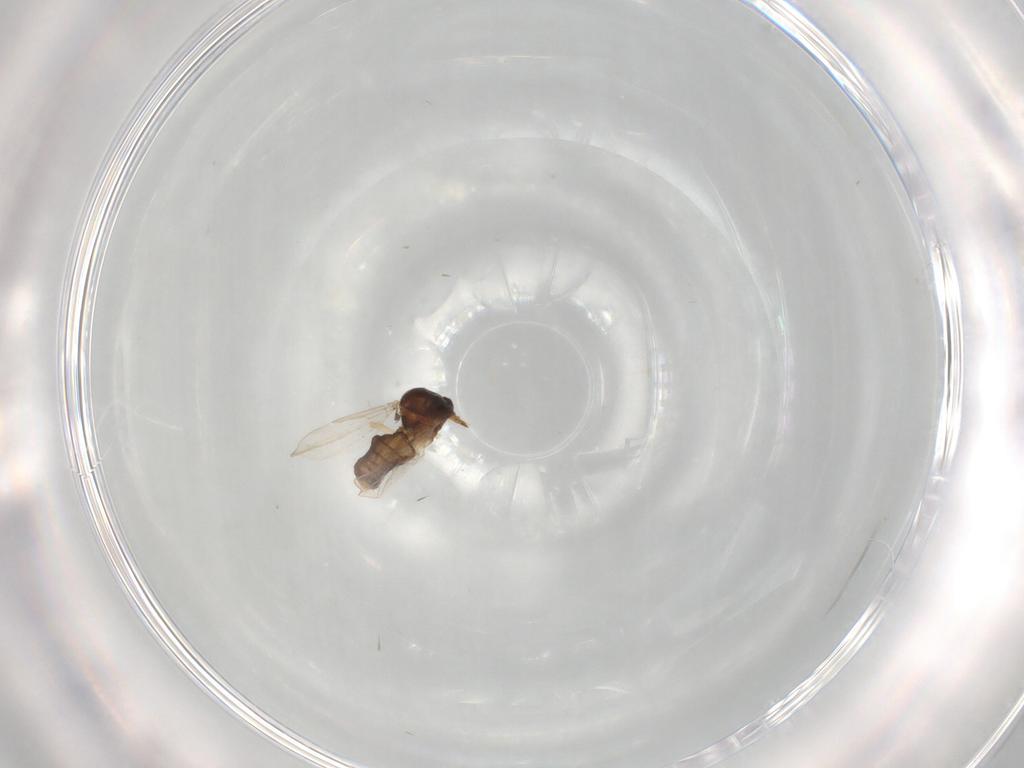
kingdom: Animalia
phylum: Arthropoda
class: Insecta
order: Diptera
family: Ceratopogonidae
